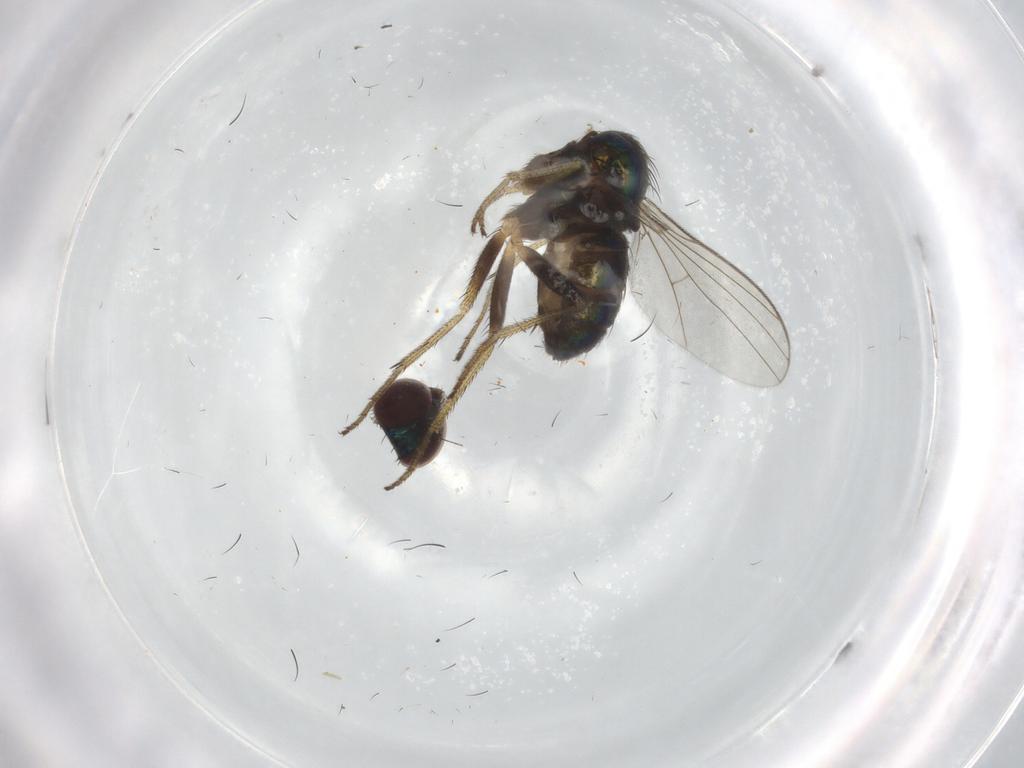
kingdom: Animalia
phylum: Arthropoda
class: Insecta
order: Diptera
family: Dolichopodidae
